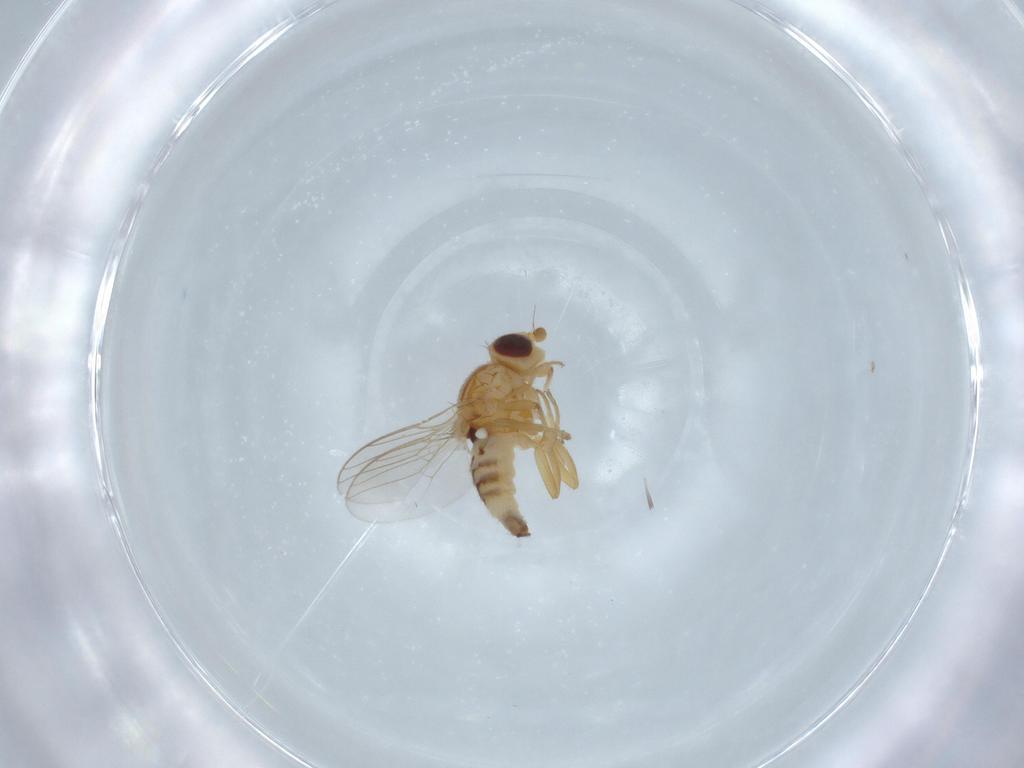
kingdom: Animalia
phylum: Arthropoda
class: Insecta
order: Diptera
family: Chloropidae
